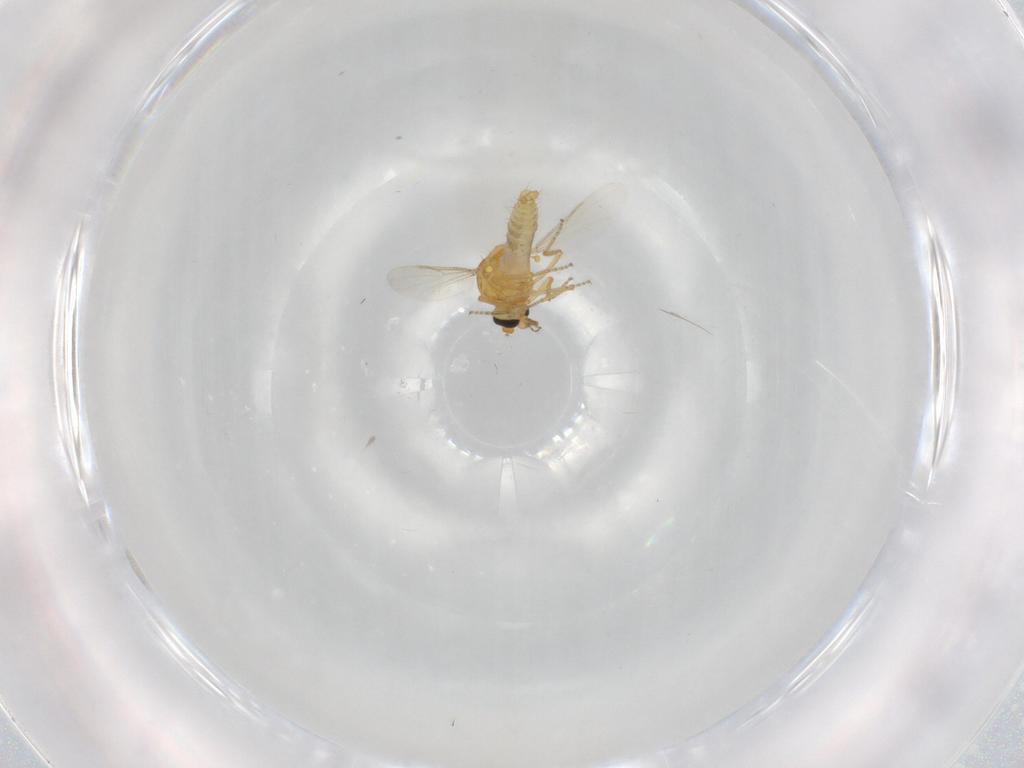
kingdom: Animalia
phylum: Arthropoda
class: Insecta
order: Diptera
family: Ceratopogonidae
